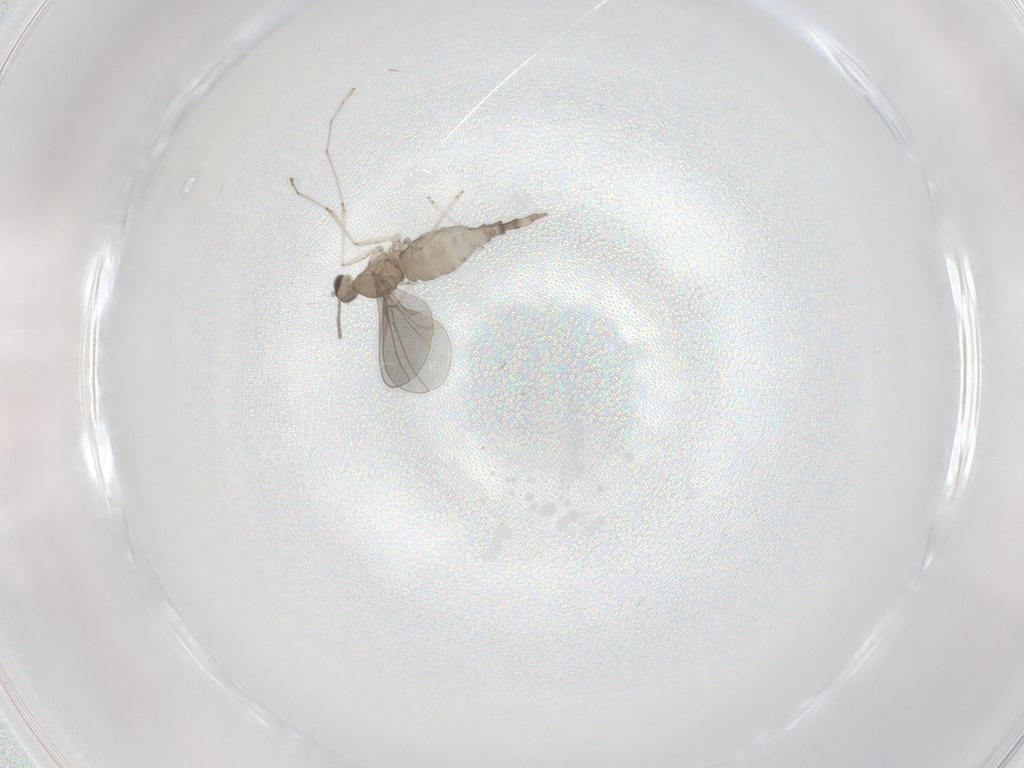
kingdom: Animalia
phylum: Arthropoda
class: Insecta
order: Diptera
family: Cecidomyiidae
